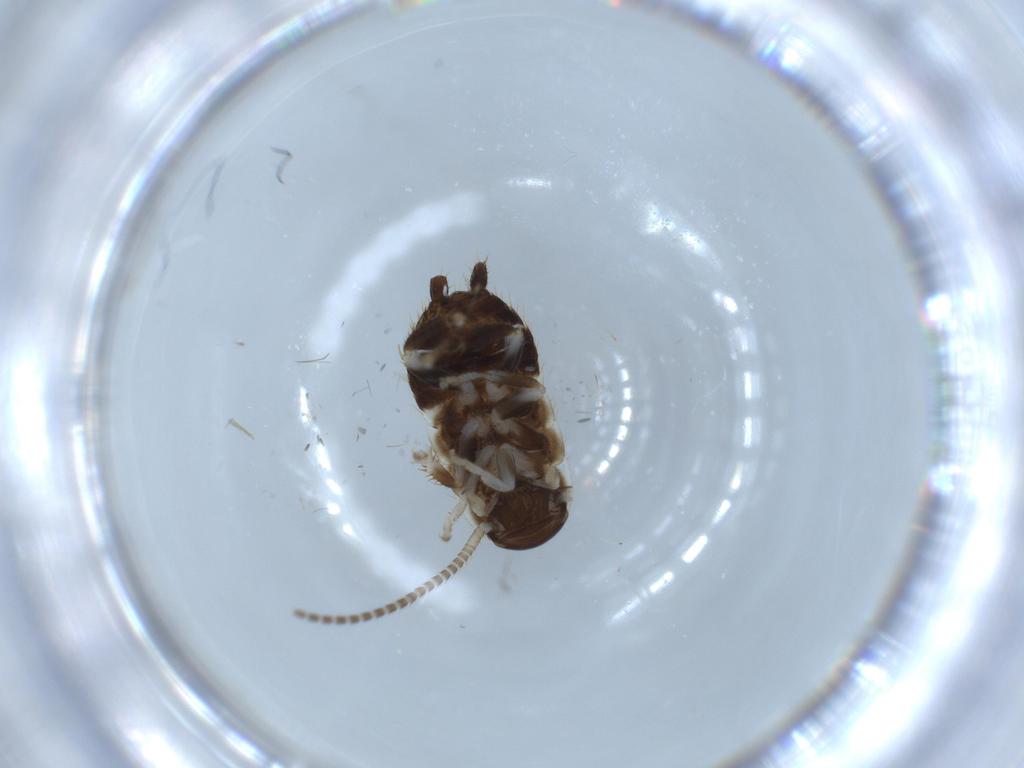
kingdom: Animalia
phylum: Arthropoda
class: Insecta
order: Blattodea
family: Ectobiidae
